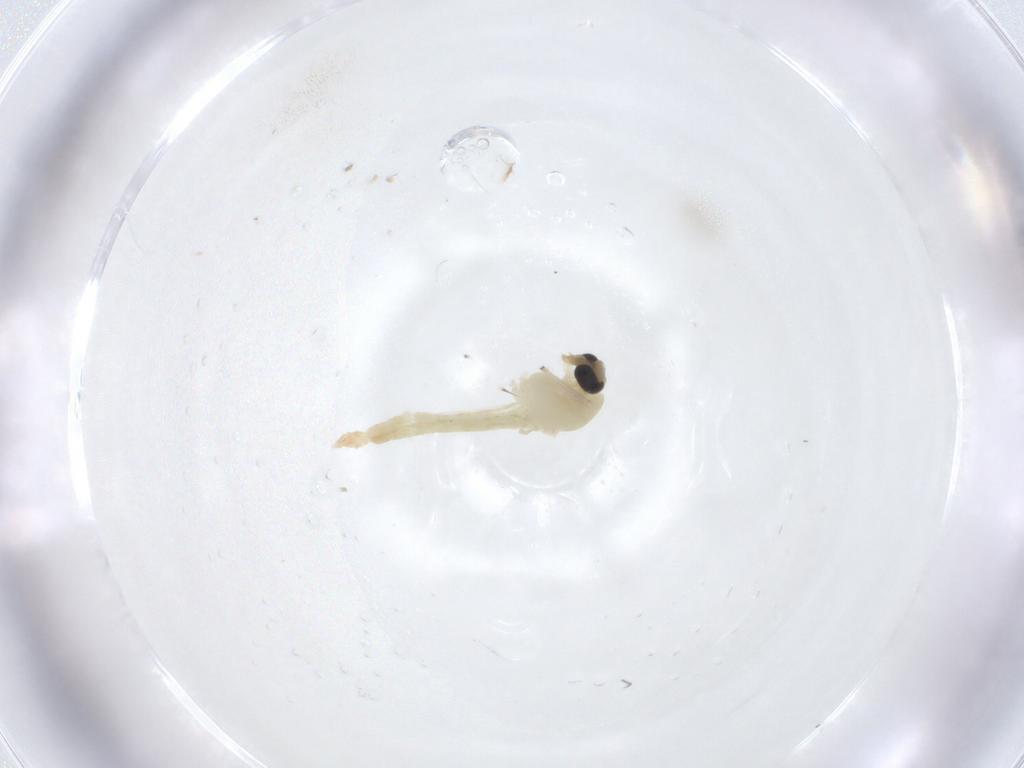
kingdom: Animalia
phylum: Arthropoda
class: Insecta
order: Diptera
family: Chironomidae
